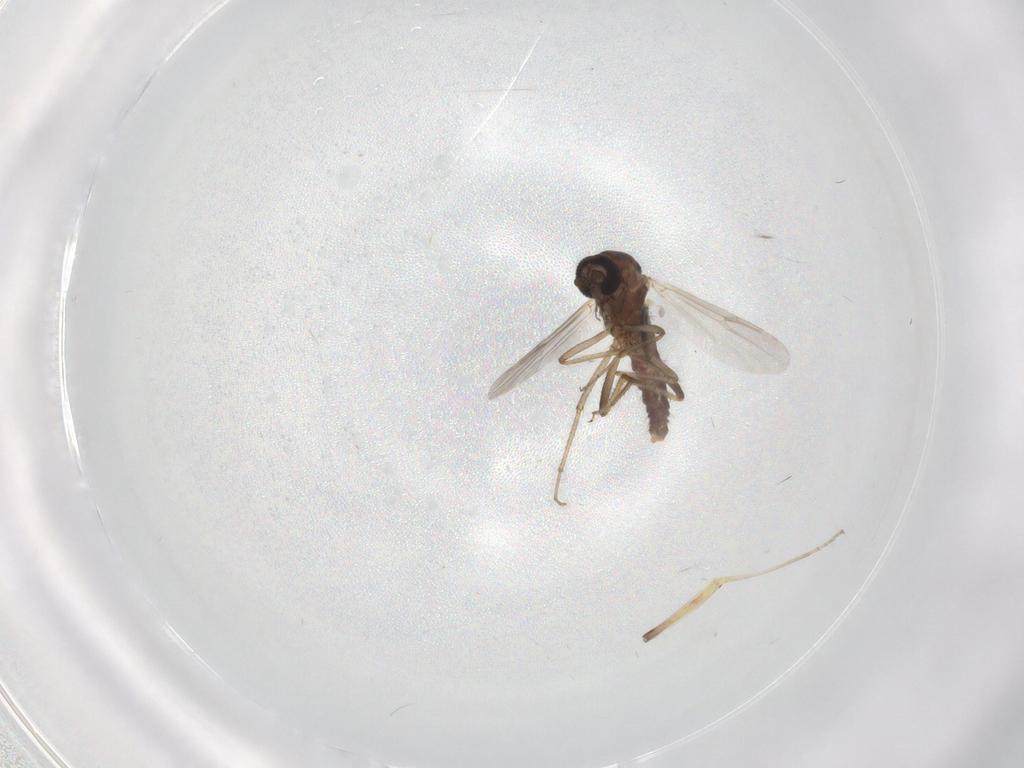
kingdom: Animalia
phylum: Arthropoda
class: Insecta
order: Diptera
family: Ceratopogonidae
